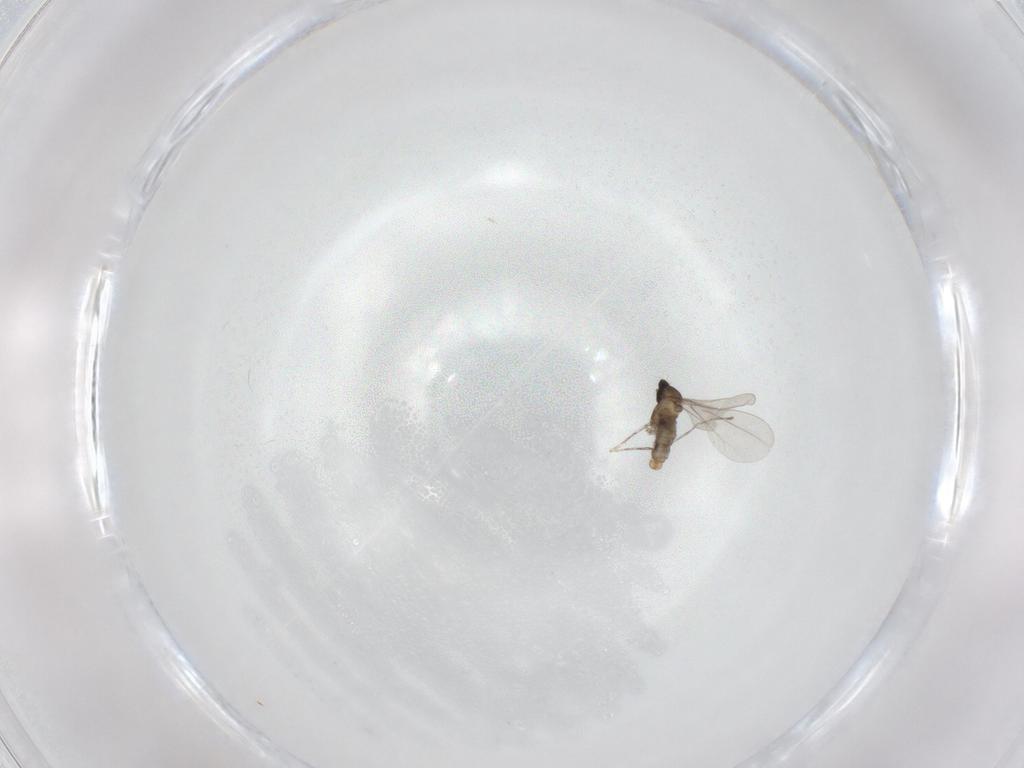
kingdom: Animalia
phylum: Arthropoda
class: Insecta
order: Diptera
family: Cecidomyiidae
